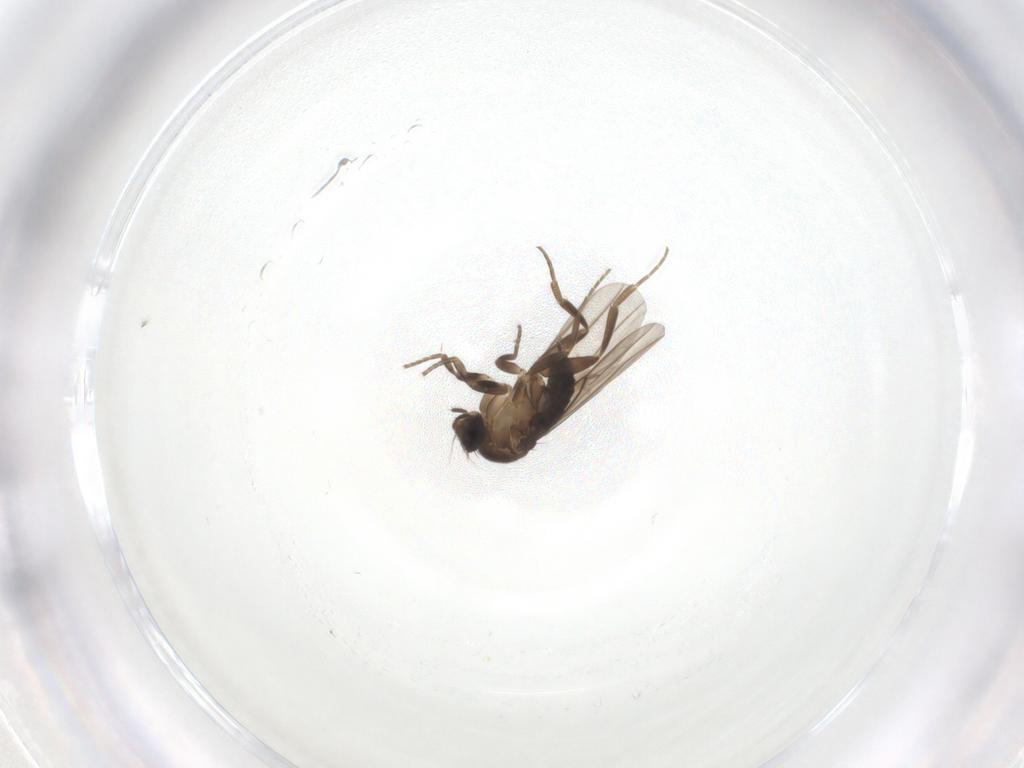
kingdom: Animalia
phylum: Arthropoda
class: Insecta
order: Diptera
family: Phoridae
